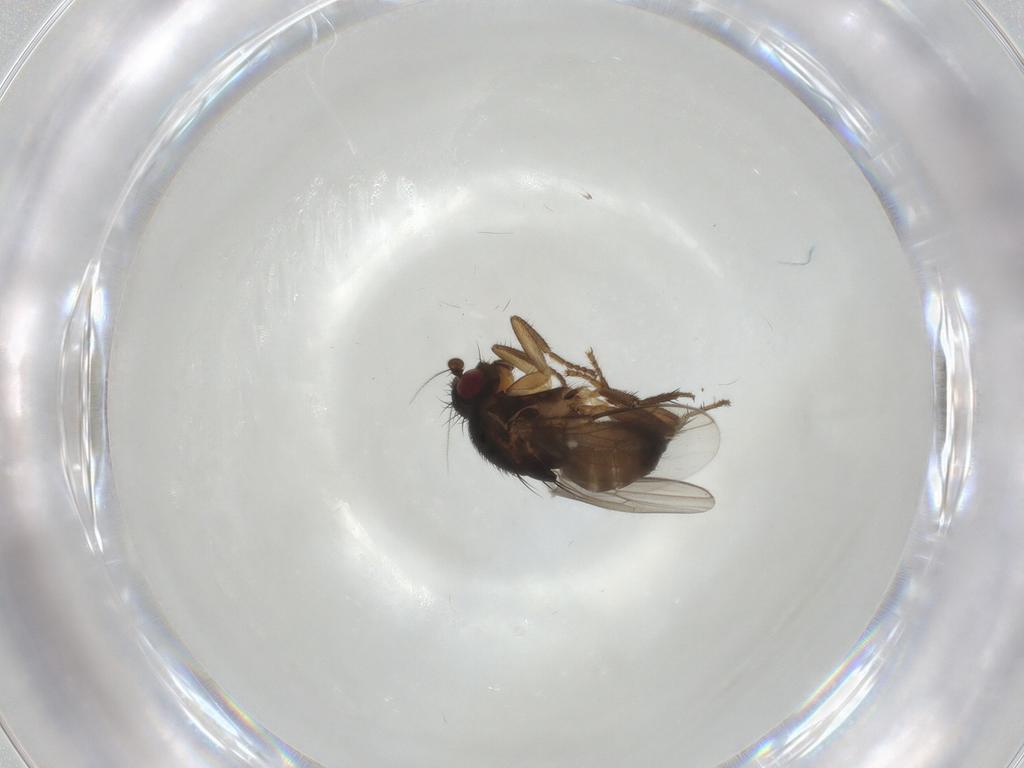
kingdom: Animalia
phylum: Arthropoda
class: Insecta
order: Diptera
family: Sphaeroceridae
